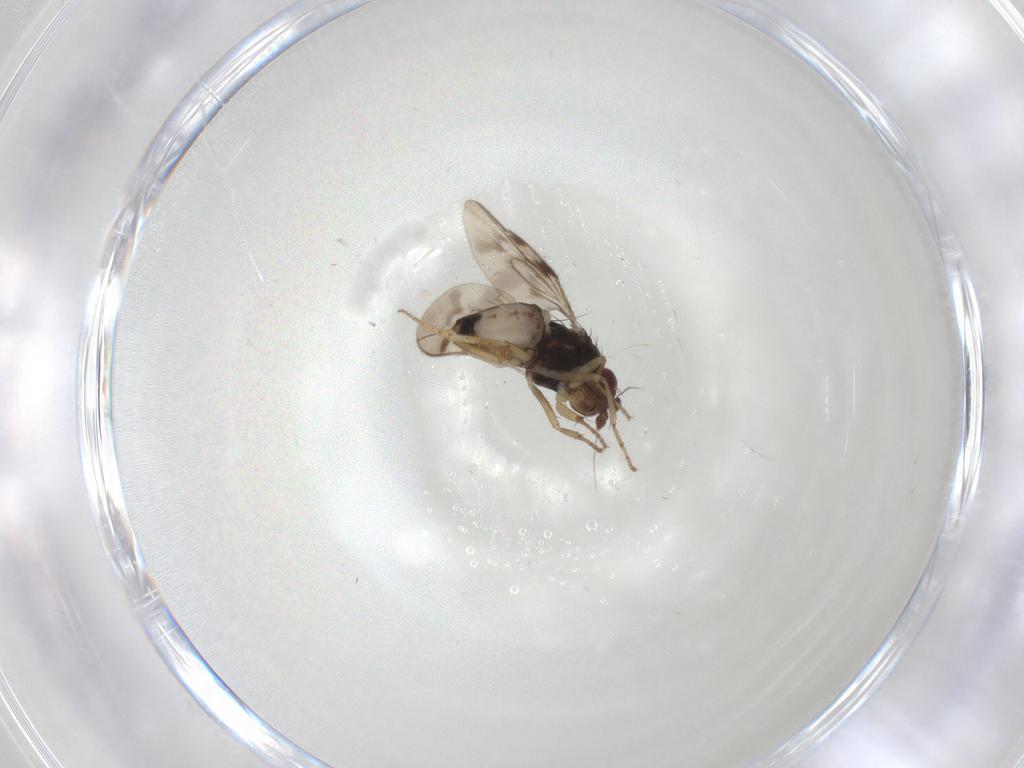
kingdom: Animalia
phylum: Arthropoda
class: Insecta
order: Diptera
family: Sphaeroceridae
